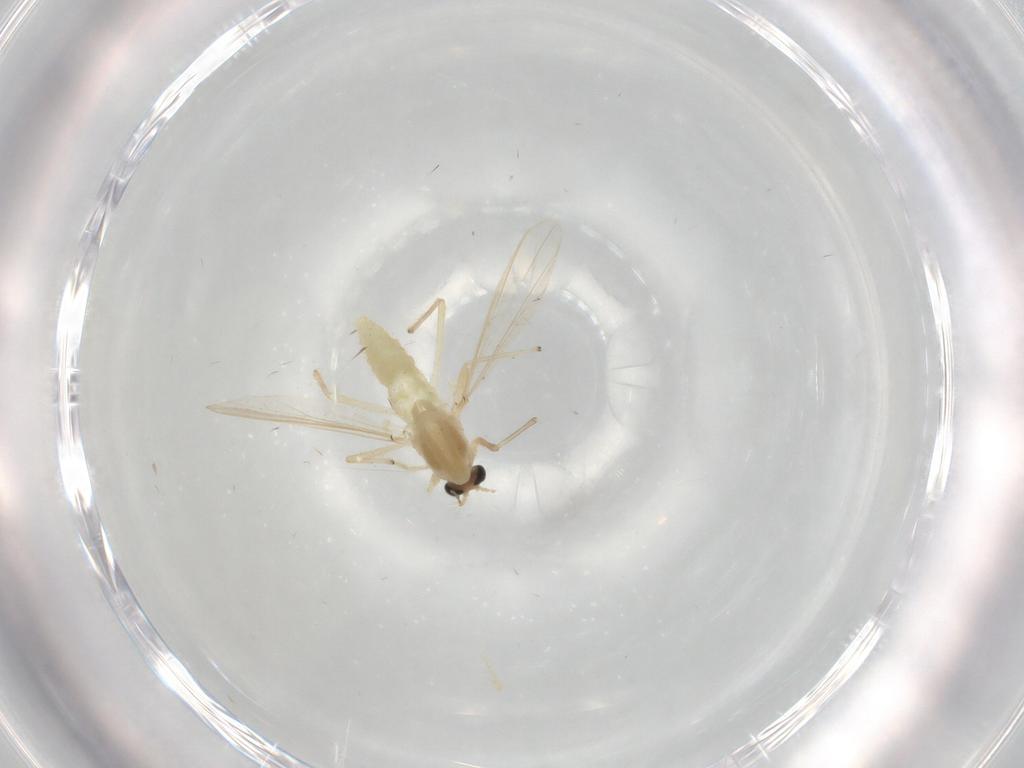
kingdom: Animalia
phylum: Arthropoda
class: Insecta
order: Diptera
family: Chironomidae
